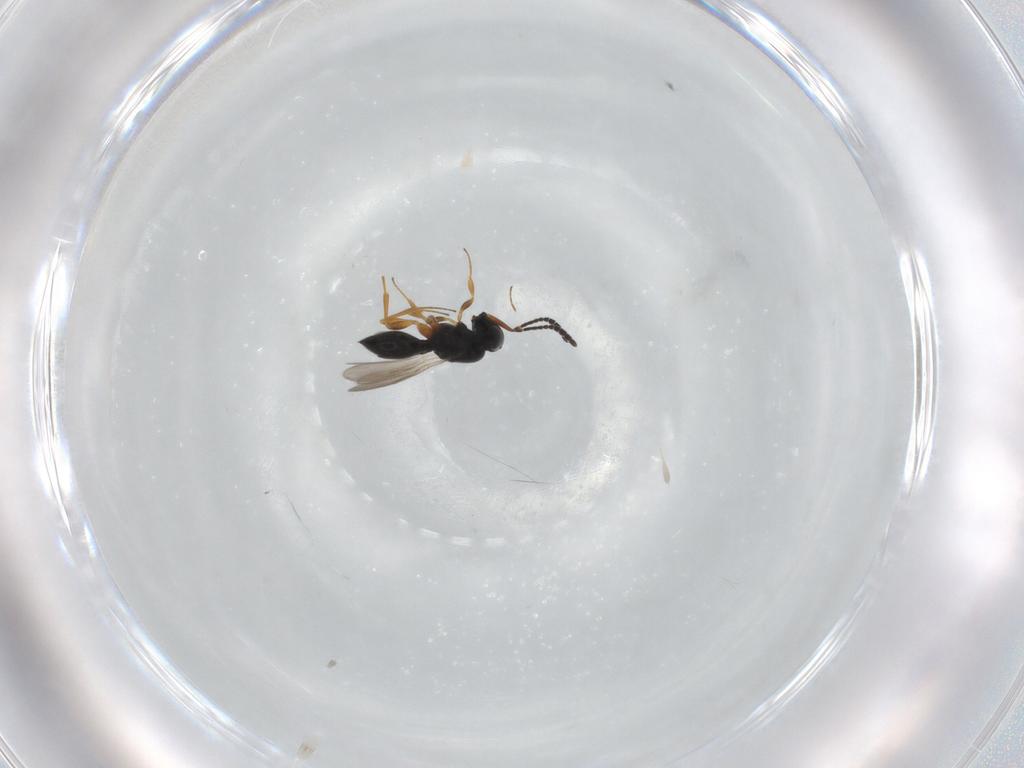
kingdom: Animalia
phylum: Arthropoda
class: Insecta
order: Hymenoptera
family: Scelionidae
